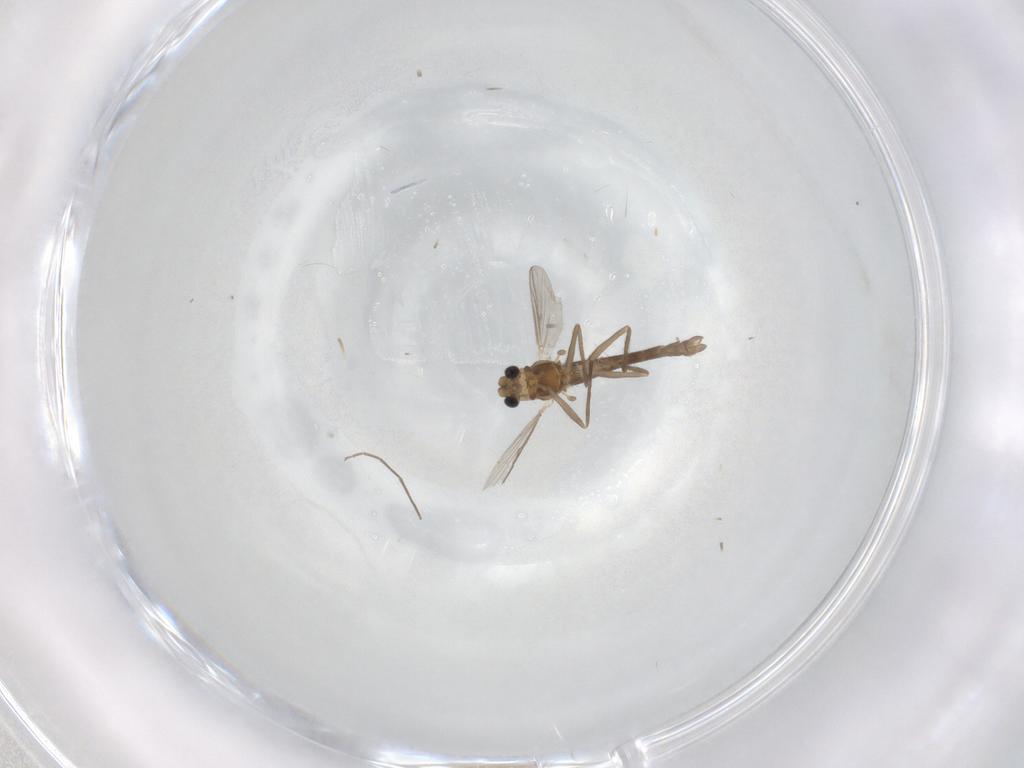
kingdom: Animalia
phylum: Arthropoda
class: Insecta
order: Diptera
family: Chironomidae
